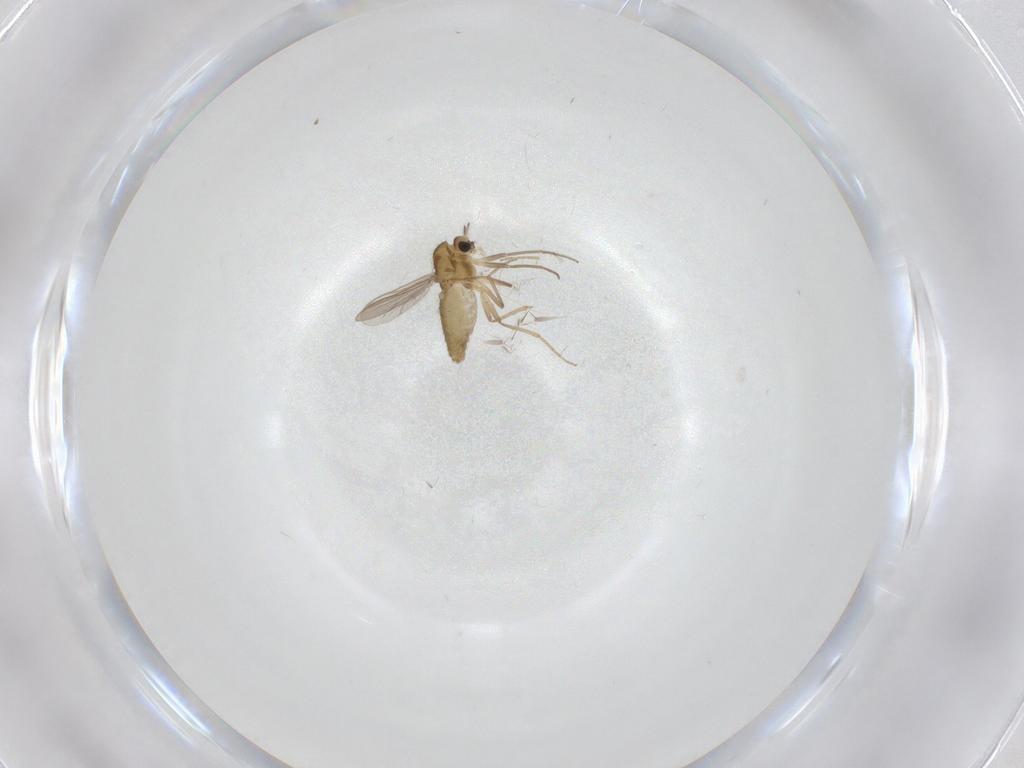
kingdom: Animalia
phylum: Arthropoda
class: Insecta
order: Diptera
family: Chironomidae
